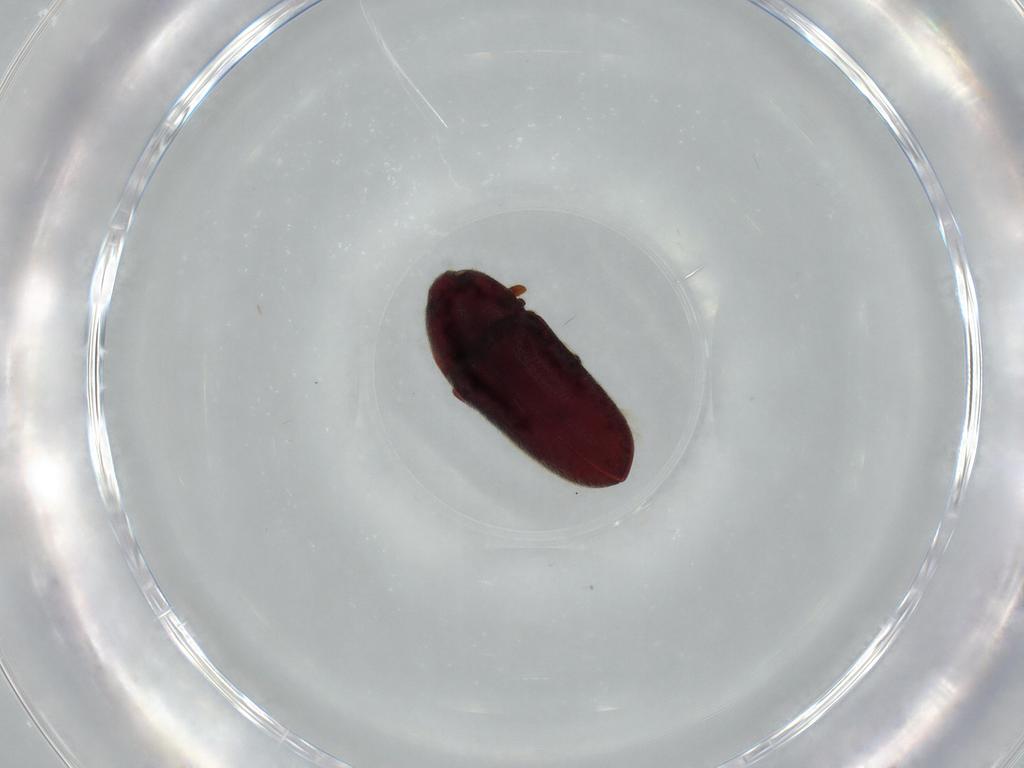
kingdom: Animalia
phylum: Arthropoda
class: Insecta
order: Coleoptera
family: Throscidae
